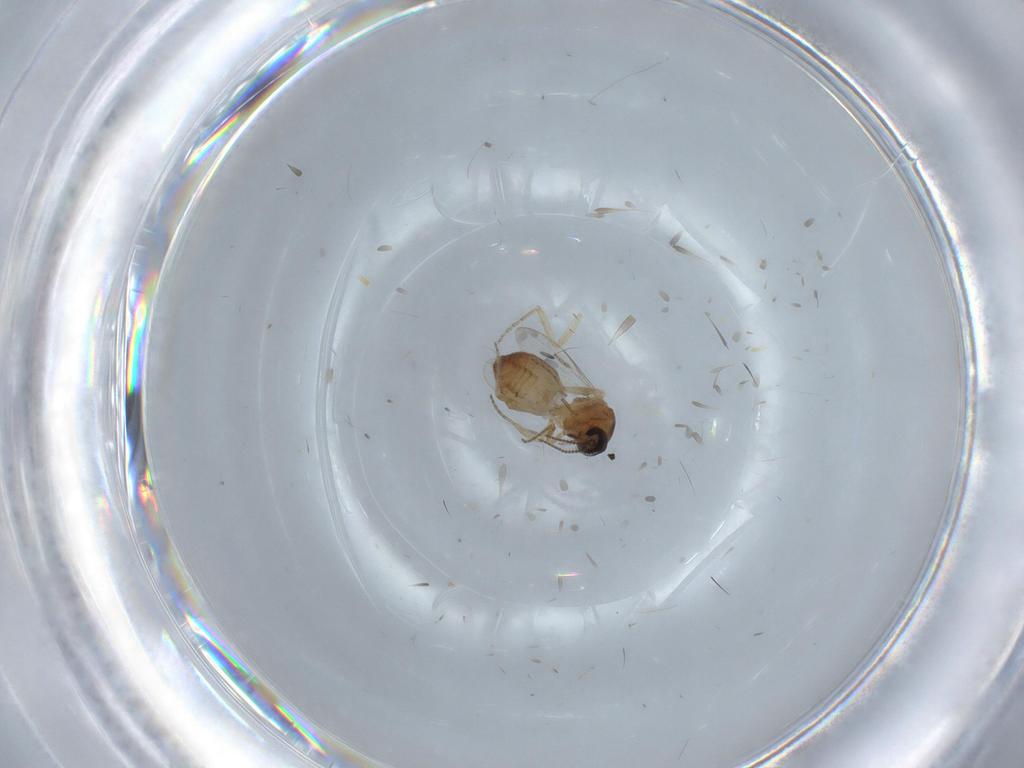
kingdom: Animalia
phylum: Arthropoda
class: Insecta
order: Diptera
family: Ceratopogonidae
